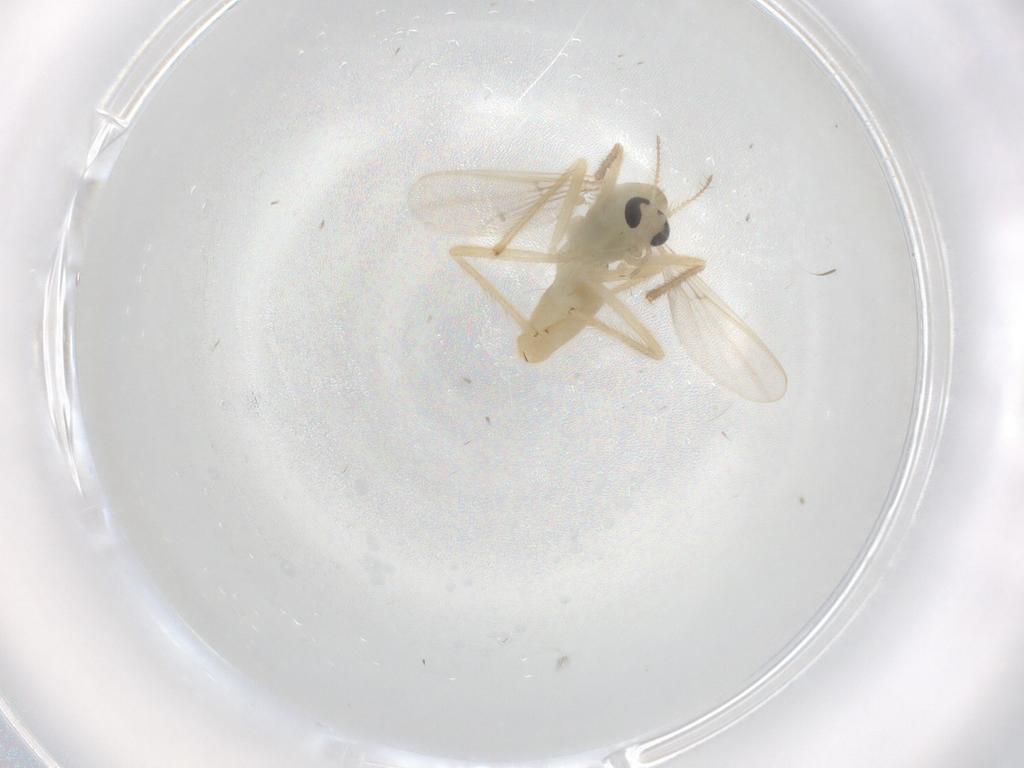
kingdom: Animalia
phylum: Arthropoda
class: Insecta
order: Diptera
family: Chironomidae
